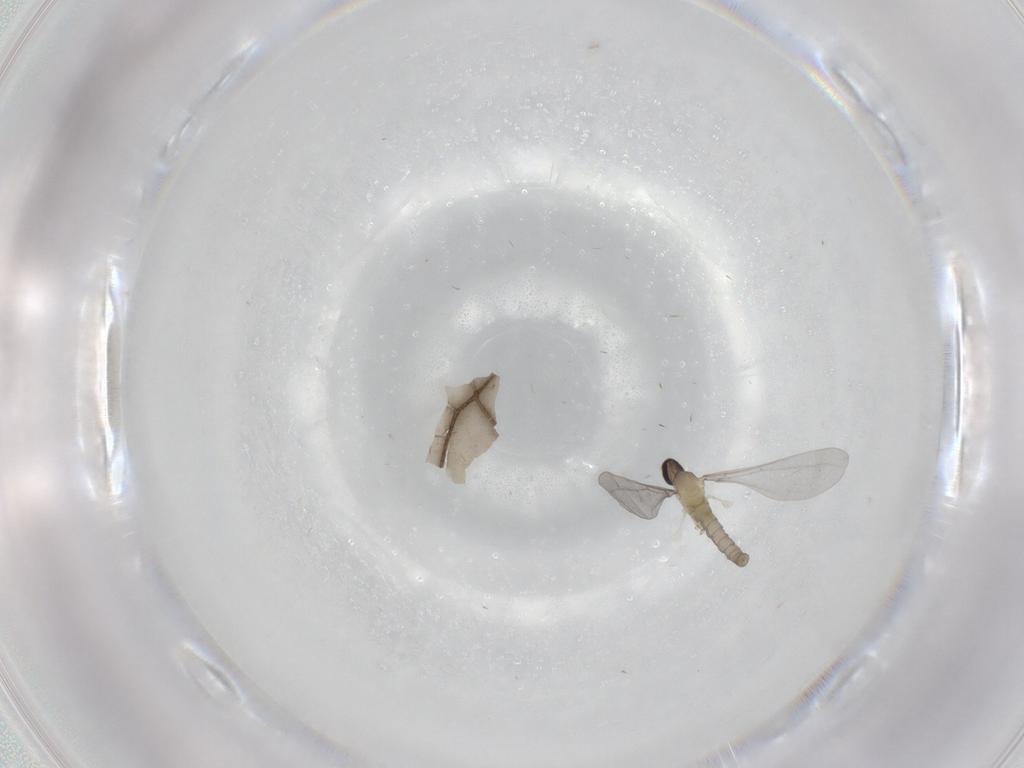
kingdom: Animalia
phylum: Arthropoda
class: Insecta
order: Diptera
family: Cecidomyiidae
